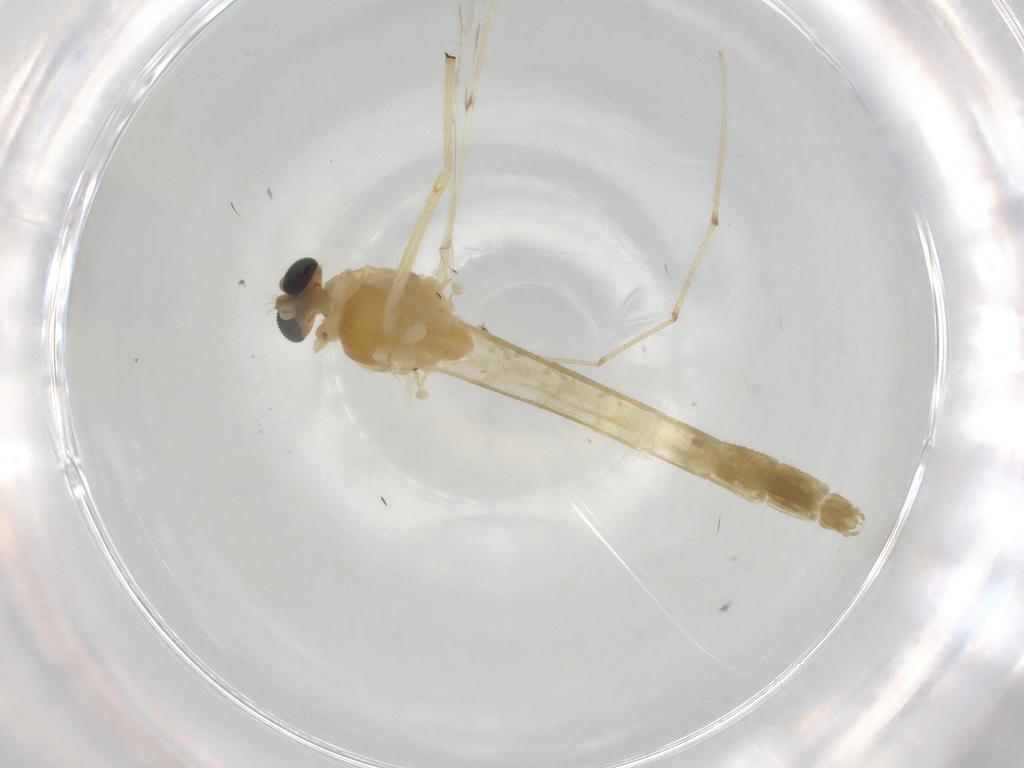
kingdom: Animalia
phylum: Arthropoda
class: Insecta
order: Diptera
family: Chironomidae
